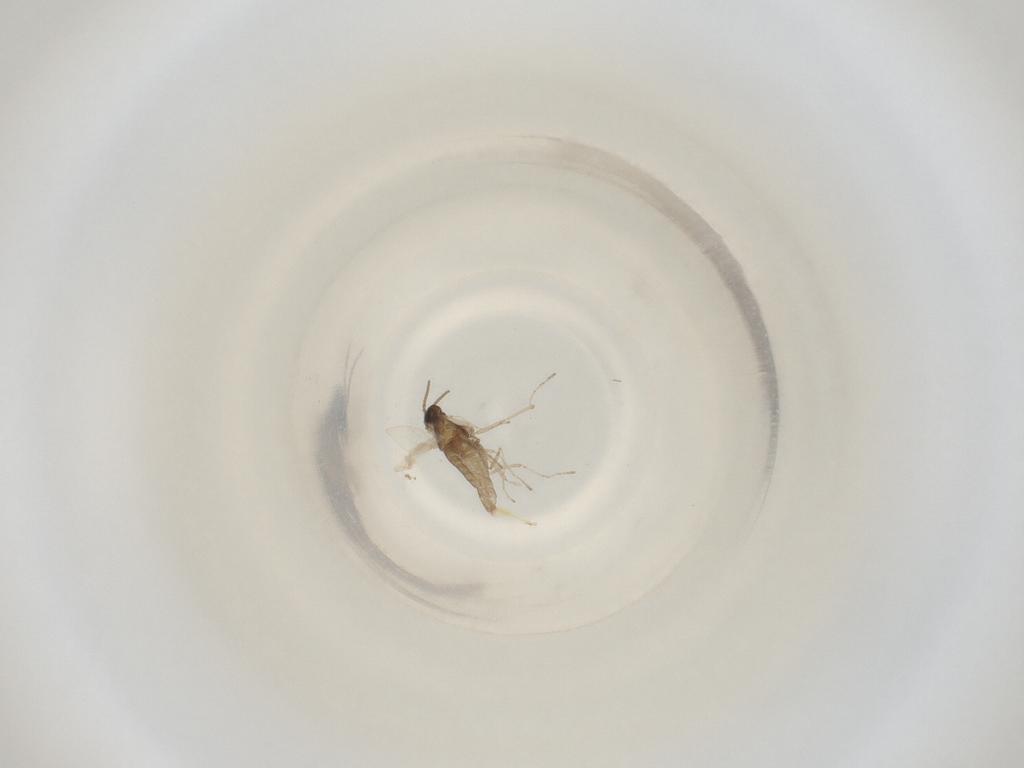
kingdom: Animalia
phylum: Arthropoda
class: Insecta
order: Diptera
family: Cecidomyiidae
